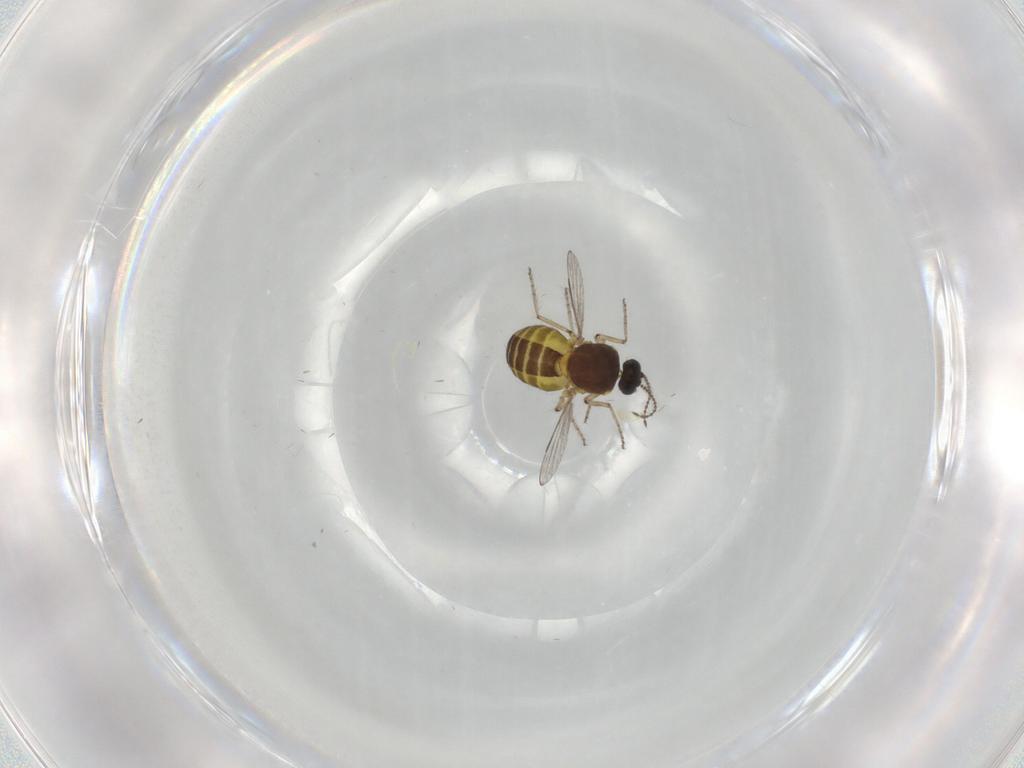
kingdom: Animalia
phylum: Arthropoda
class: Insecta
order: Diptera
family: Ceratopogonidae
